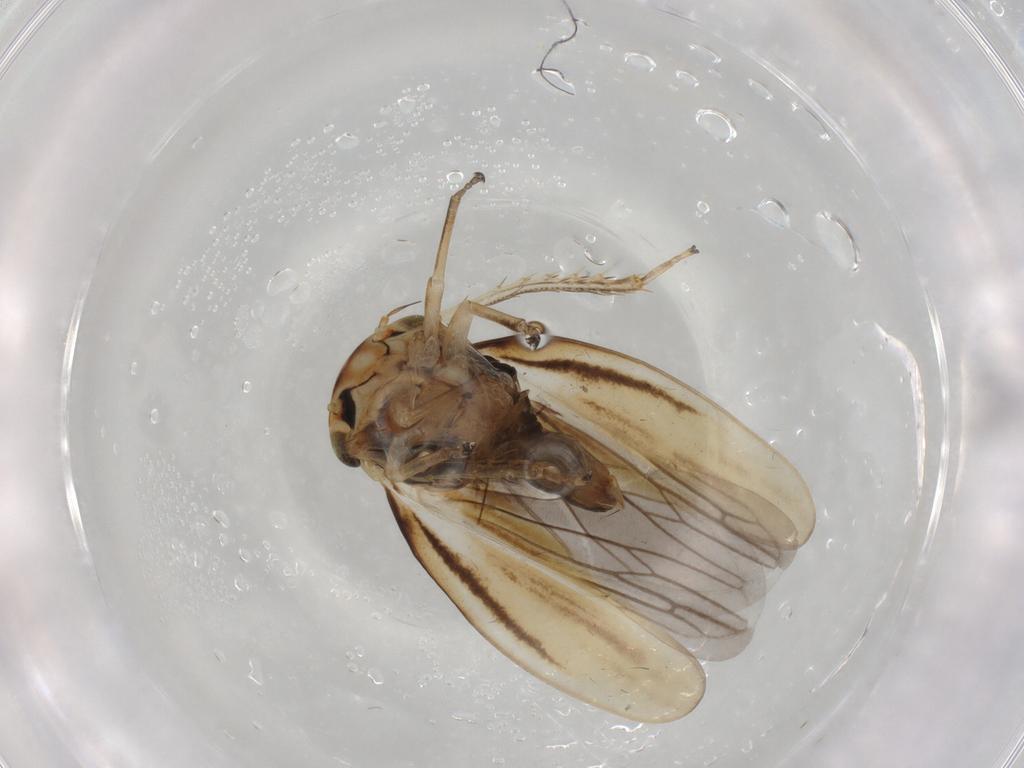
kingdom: Animalia
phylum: Arthropoda
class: Insecta
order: Hemiptera
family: Cicadellidae
